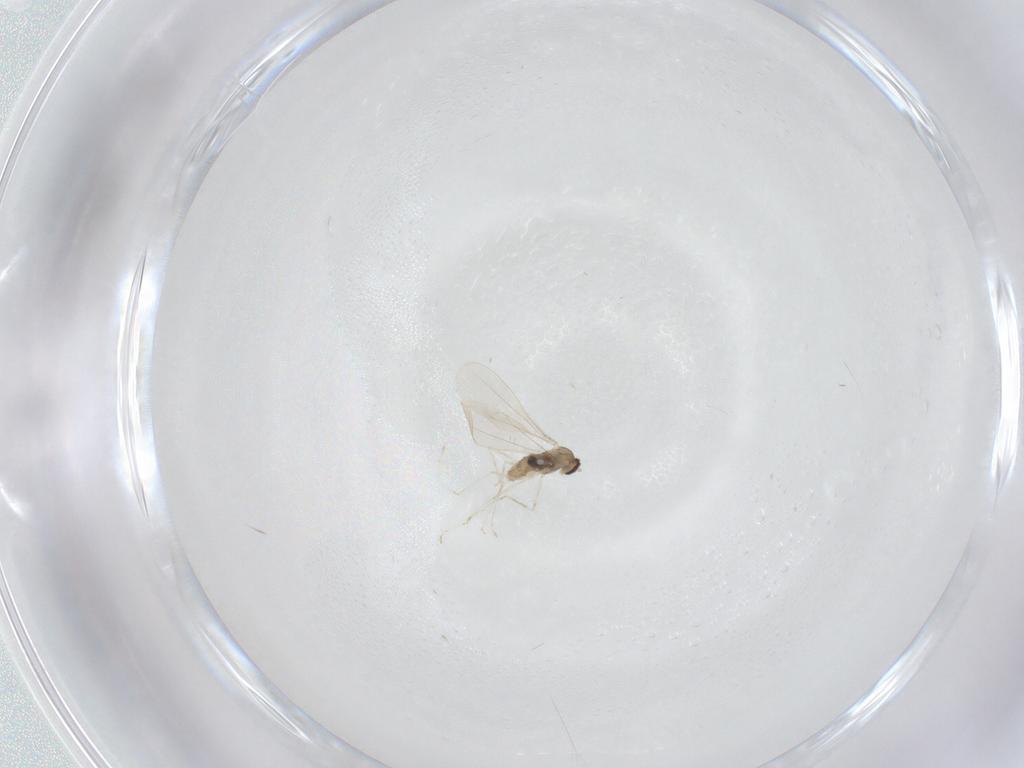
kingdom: Animalia
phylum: Arthropoda
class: Insecta
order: Diptera
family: Cecidomyiidae
